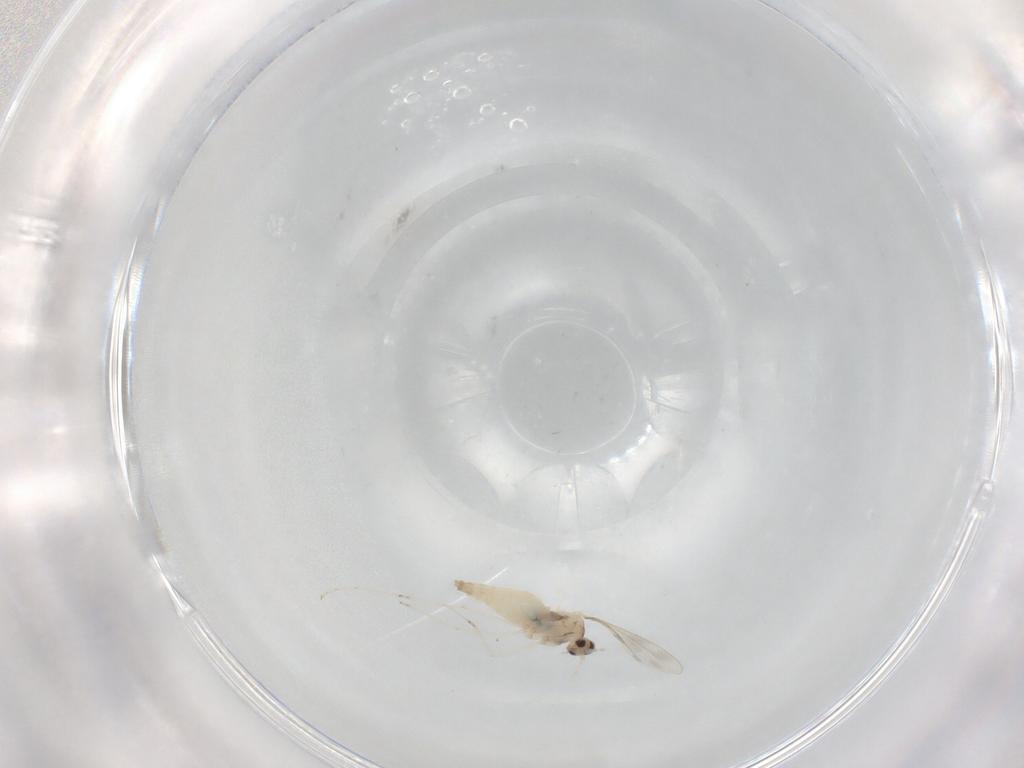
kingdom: Animalia
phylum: Arthropoda
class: Insecta
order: Diptera
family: Cecidomyiidae
